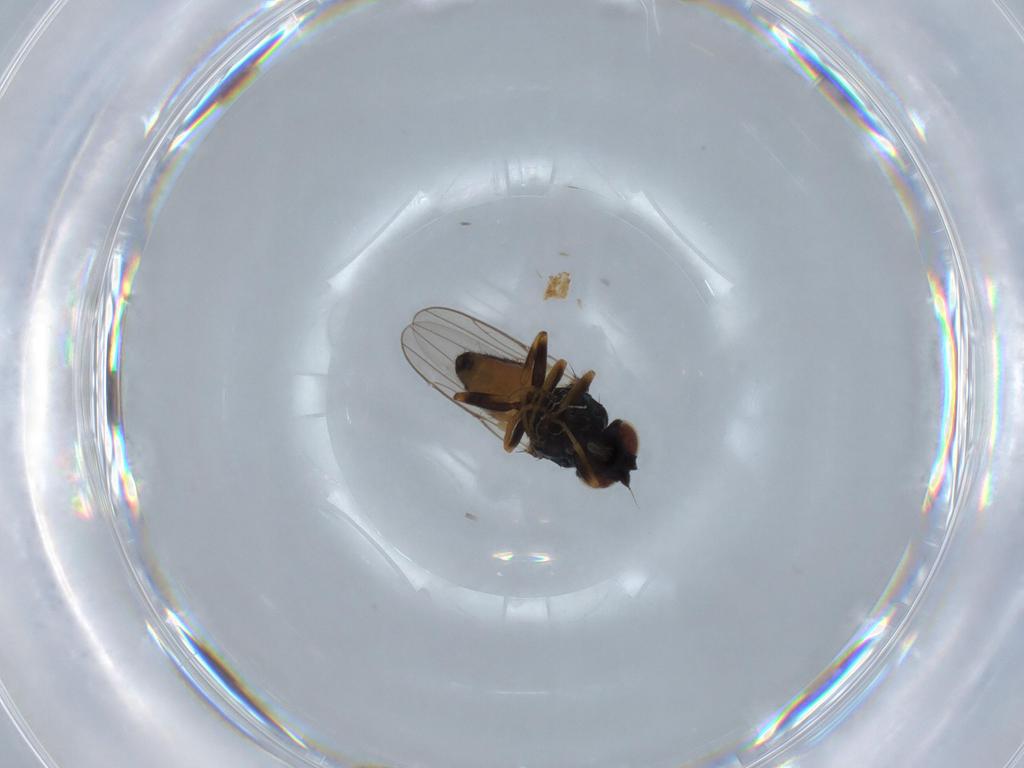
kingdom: Animalia
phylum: Arthropoda
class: Insecta
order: Diptera
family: Chloropidae
